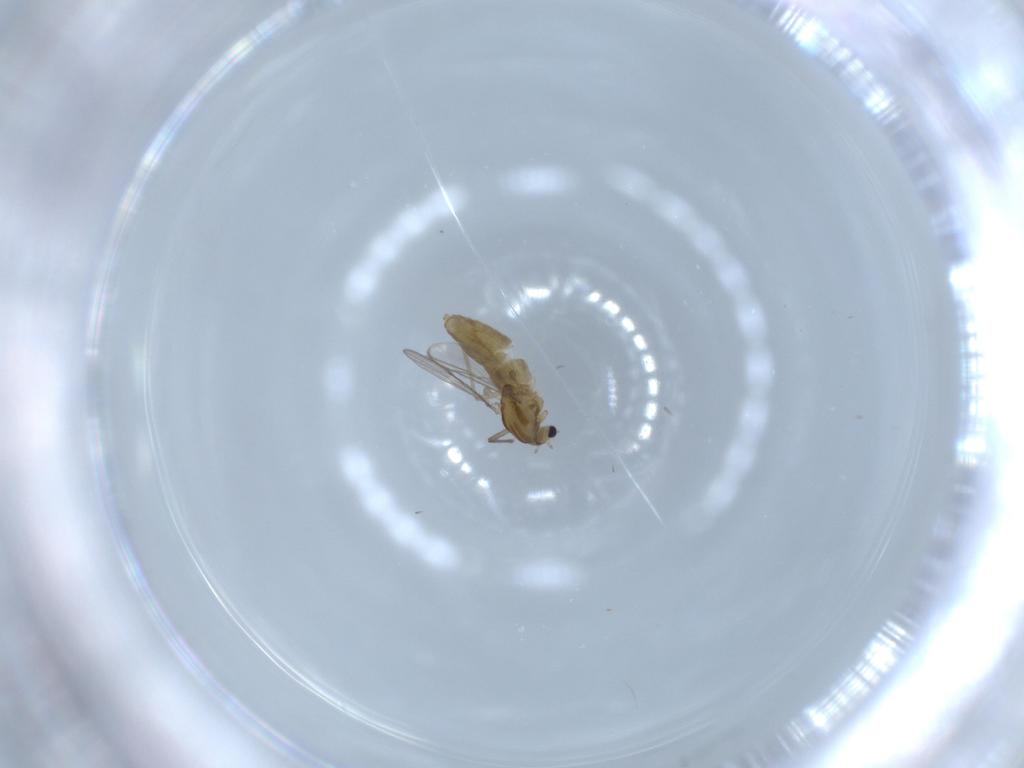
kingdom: Animalia
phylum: Arthropoda
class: Insecta
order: Diptera
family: Chironomidae
